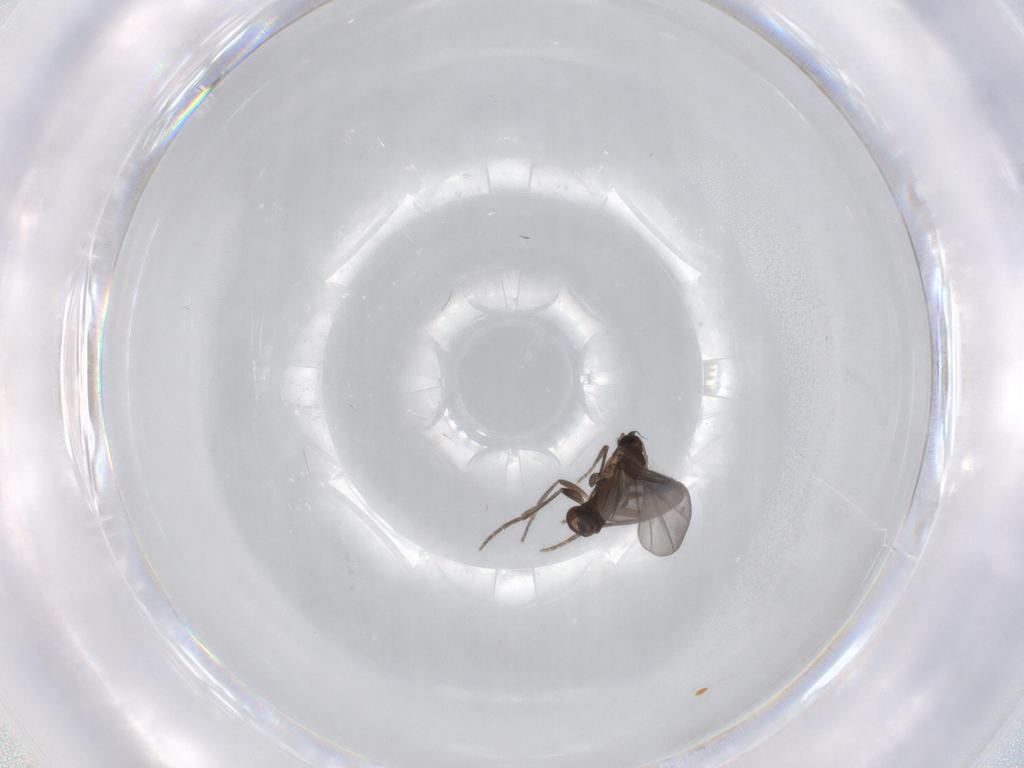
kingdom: Animalia
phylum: Arthropoda
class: Insecta
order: Diptera
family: Phoridae
